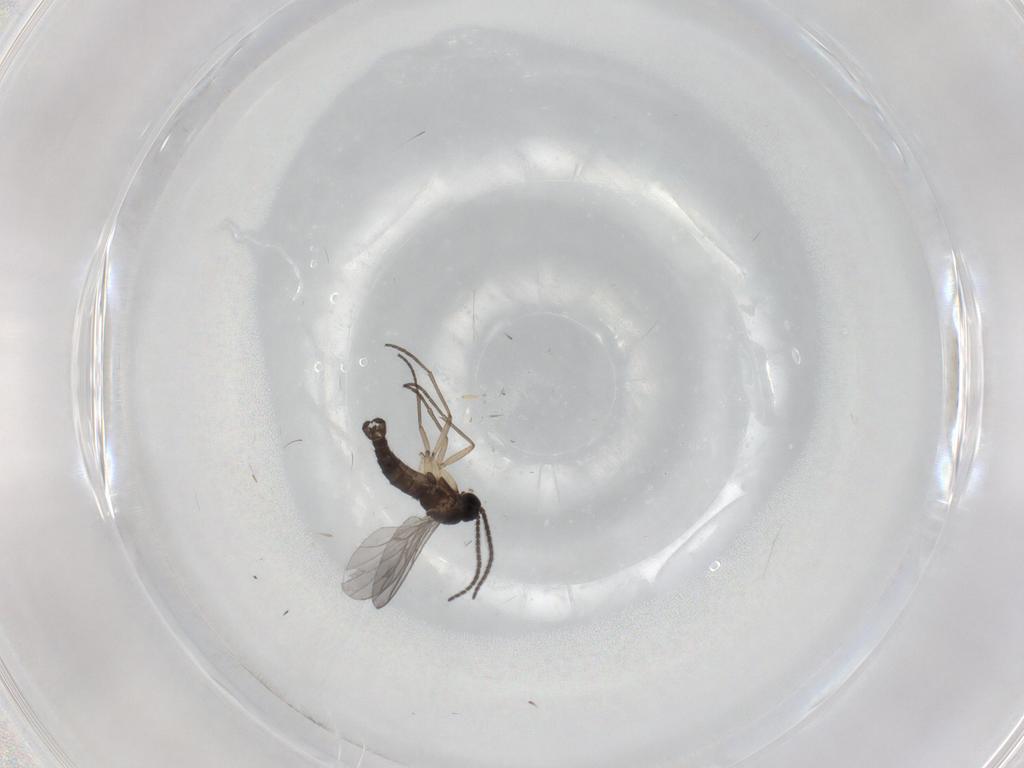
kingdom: Animalia
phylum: Arthropoda
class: Insecta
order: Diptera
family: Sciaridae
